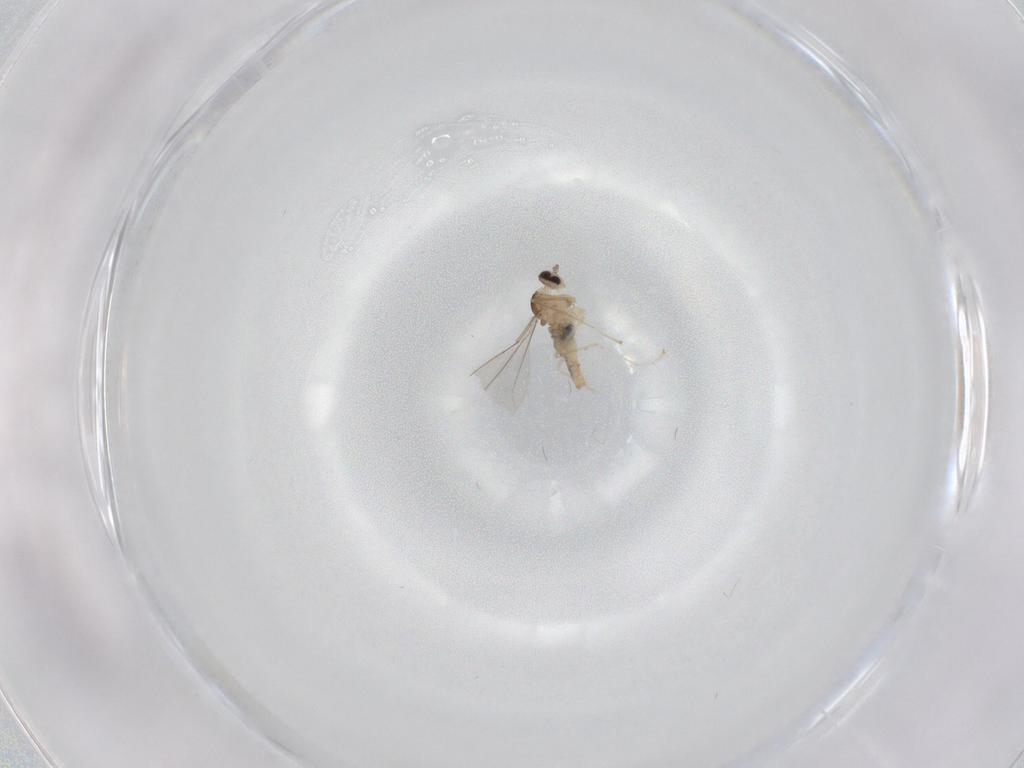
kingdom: Animalia
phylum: Arthropoda
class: Insecta
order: Diptera
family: Cecidomyiidae
